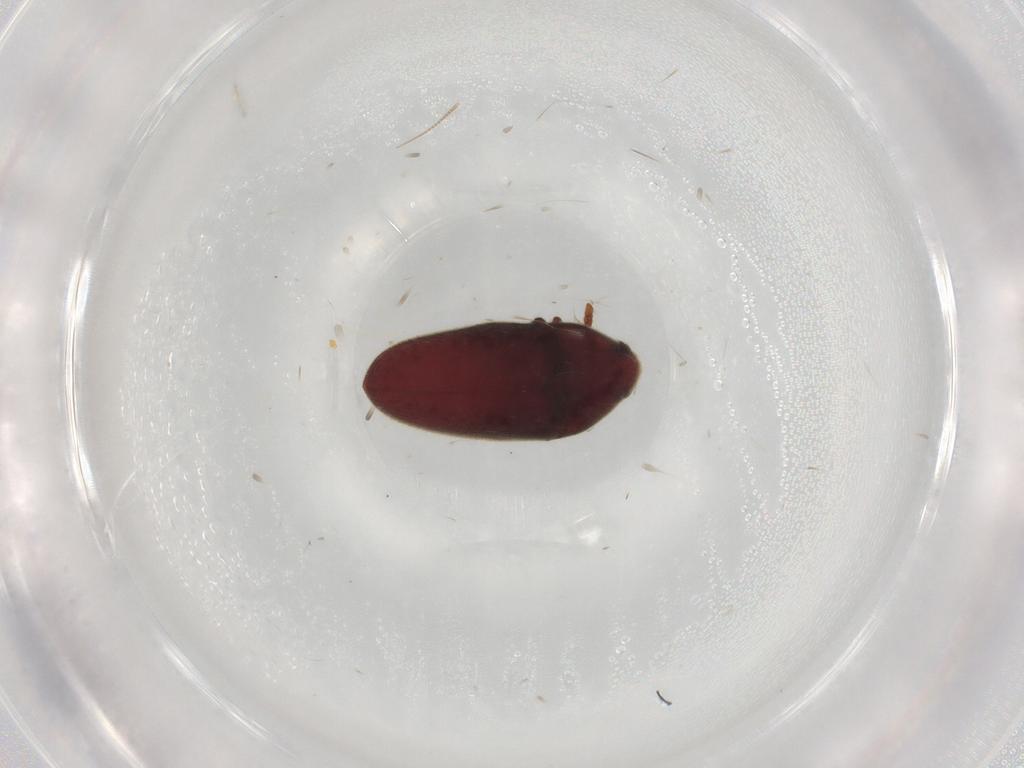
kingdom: Animalia
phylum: Arthropoda
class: Insecta
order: Coleoptera
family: Throscidae
